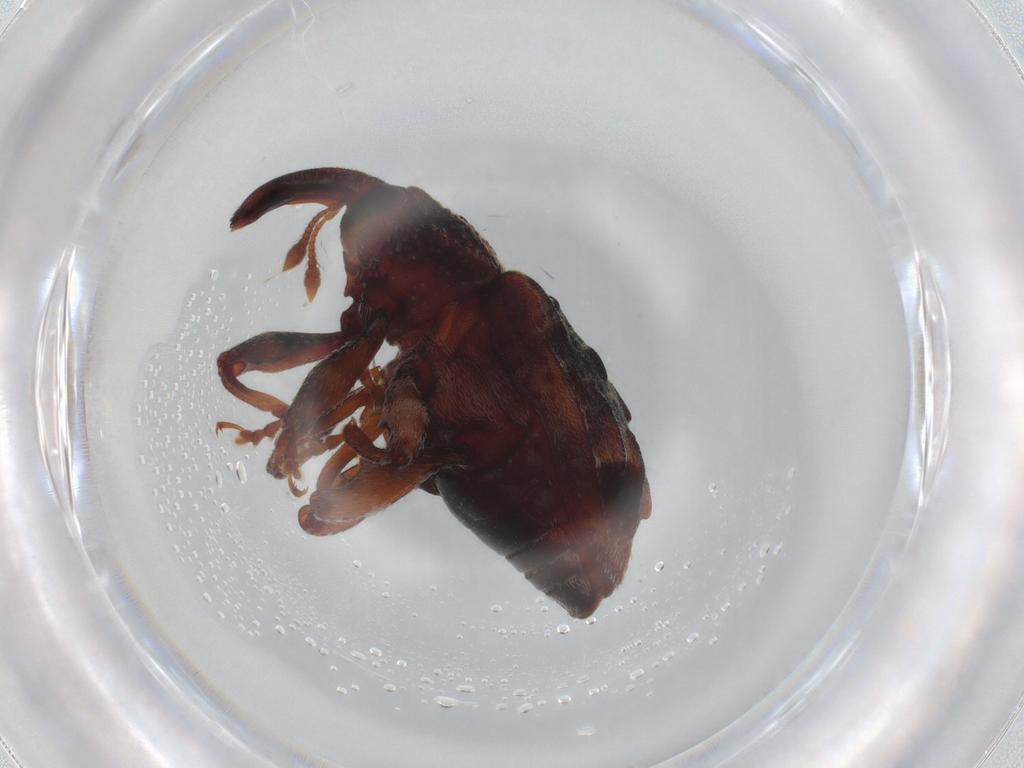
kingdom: Animalia
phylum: Arthropoda
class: Insecta
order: Coleoptera
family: Curculionidae
